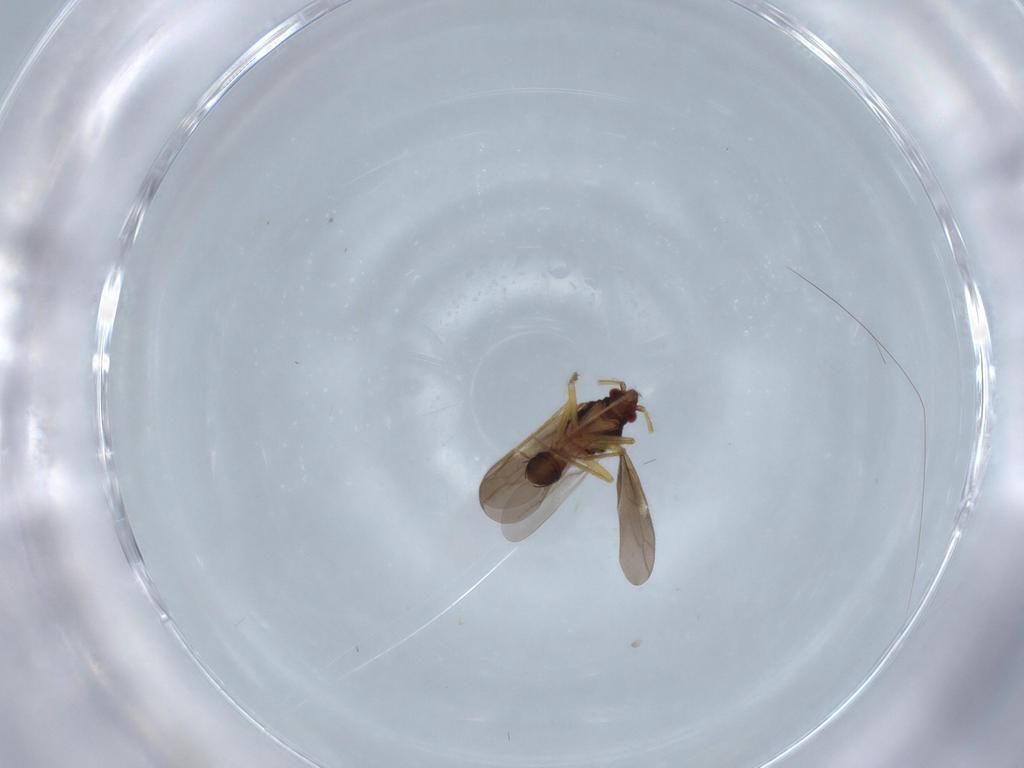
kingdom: Animalia
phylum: Arthropoda
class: Insecta
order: Hemiptera
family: Ceratocombidae
